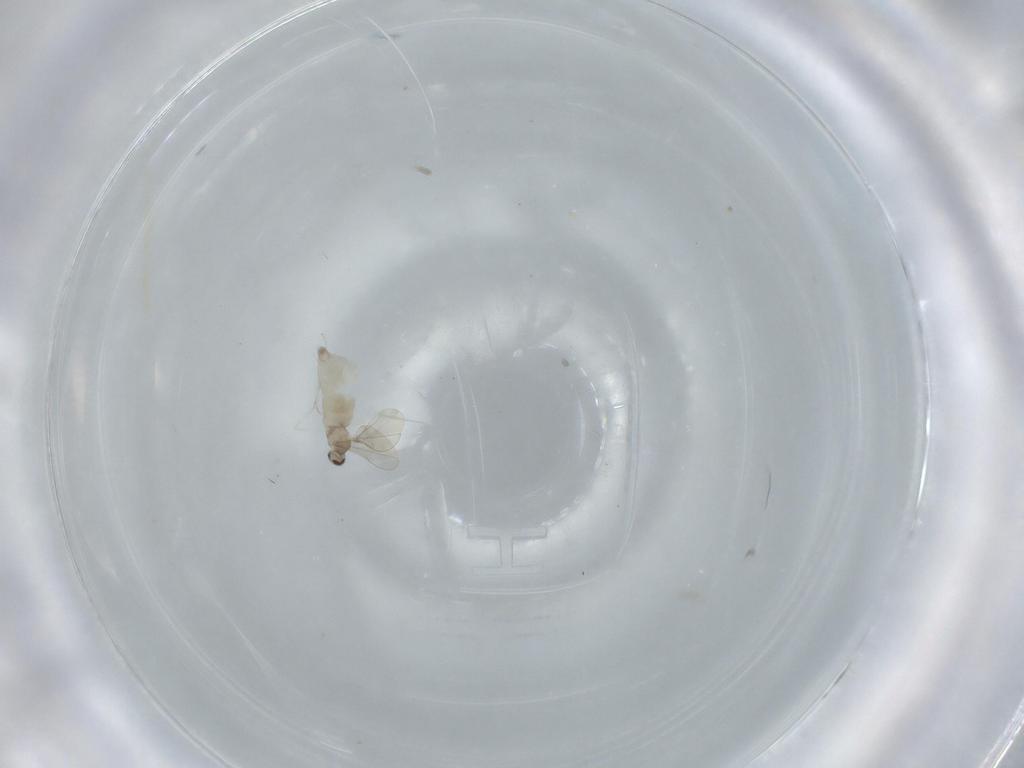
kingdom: Animalia
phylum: Arthropoda
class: Insecta
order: Diptera
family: Cecidomyiidae
